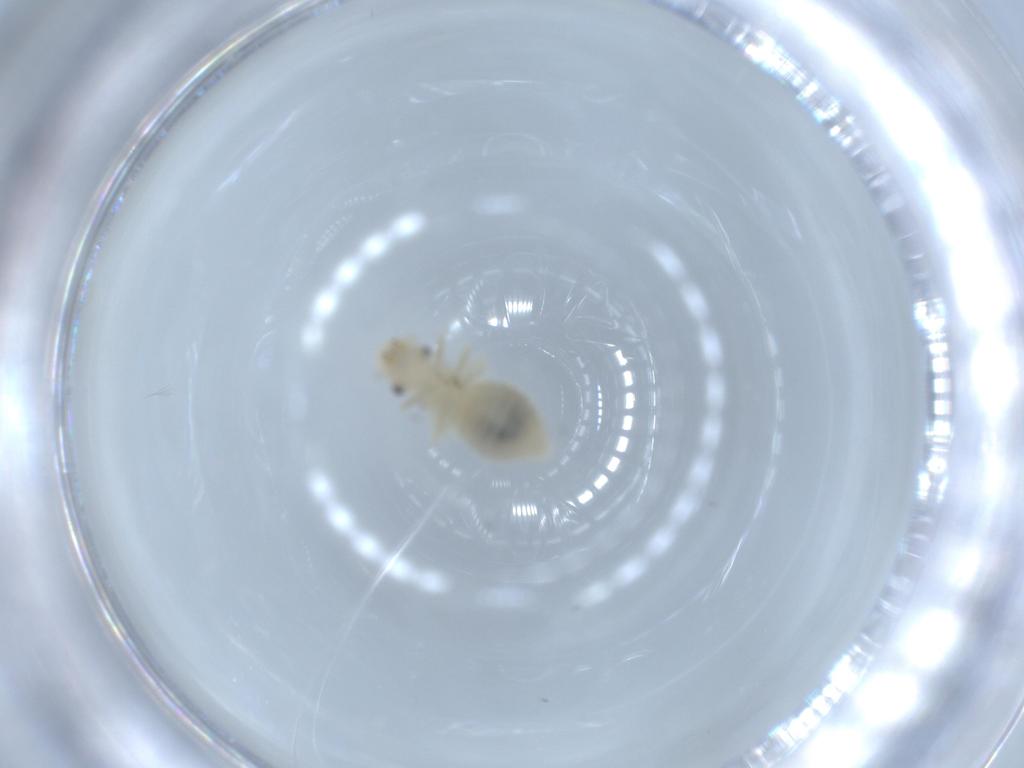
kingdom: Animalia
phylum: Arthropoda
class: Insecta
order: Psocodea
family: Caeciliusidae
